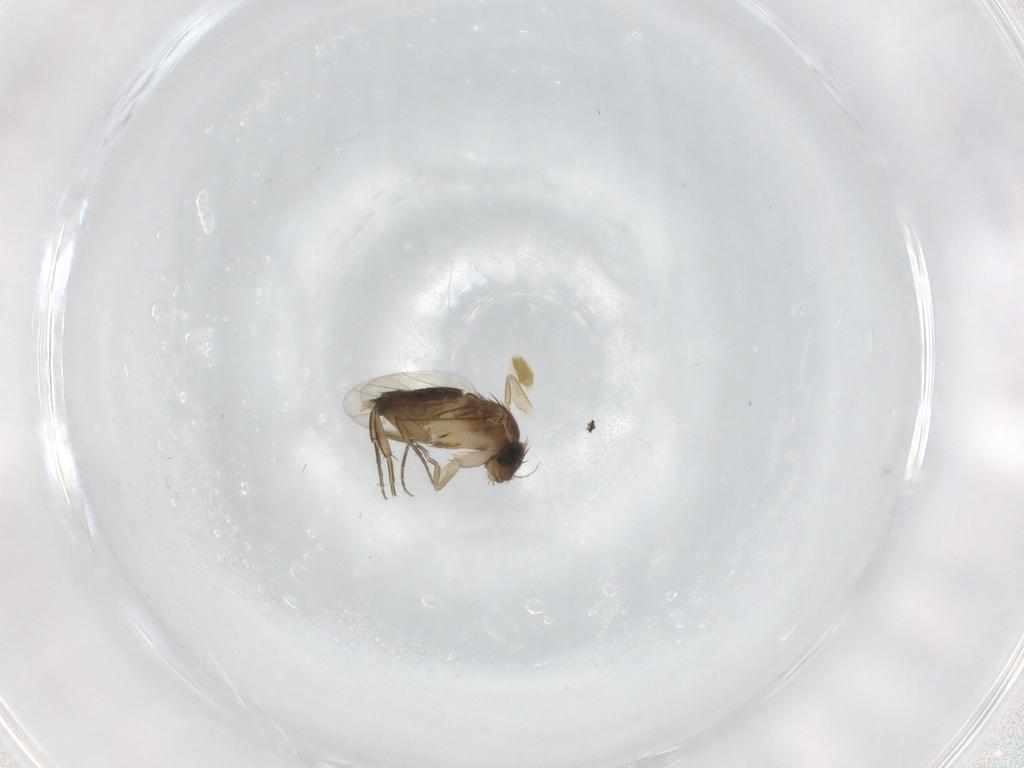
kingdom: Animalia
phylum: Arthropoda
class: Insecta
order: Diptera
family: Phoridae
